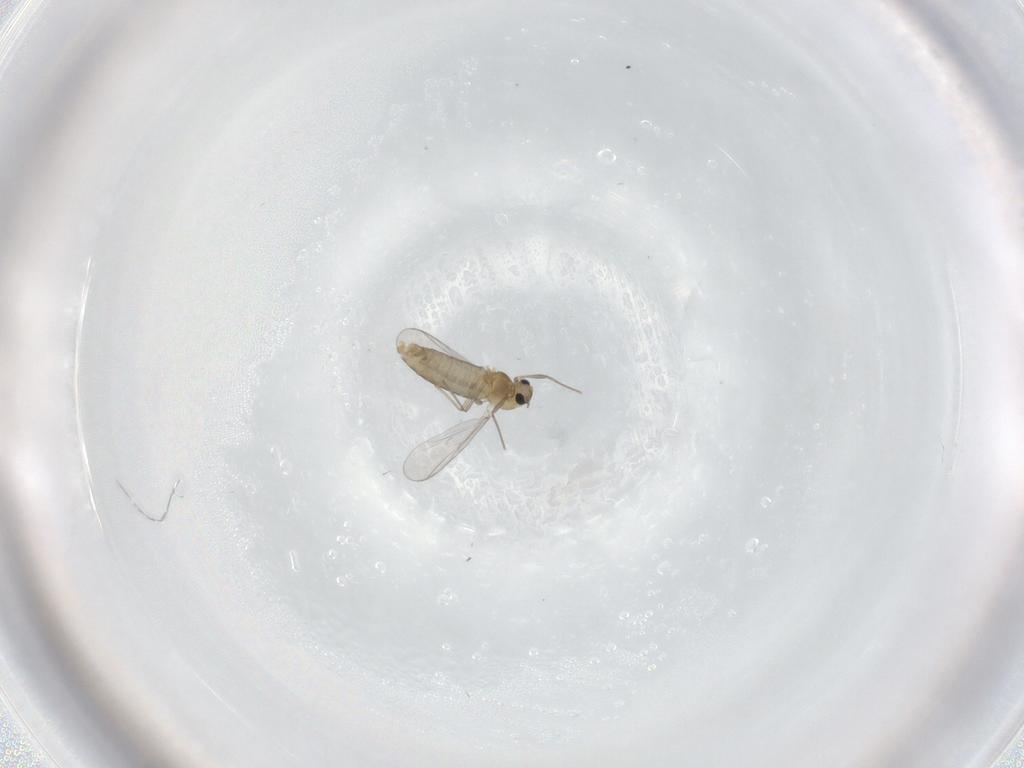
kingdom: Animalia
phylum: Arthropoda
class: Insecta
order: Diptera
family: Chironomidae
